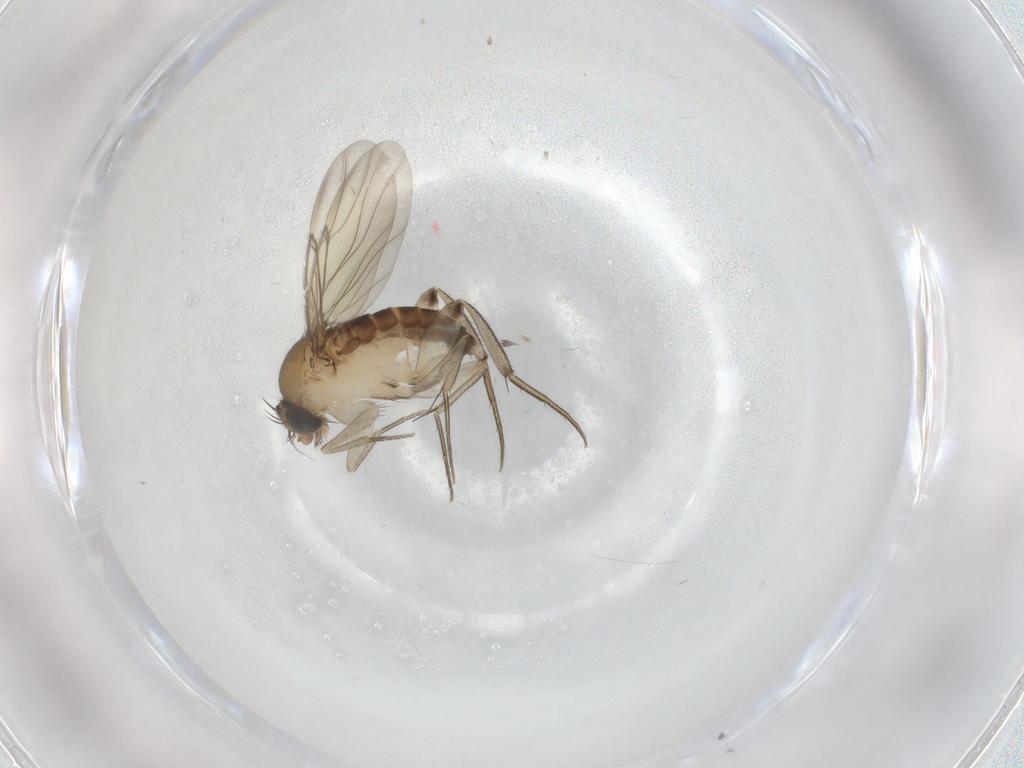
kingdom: Animalia
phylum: Arthropoda
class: Insecta
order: Diptera
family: Phoridae
